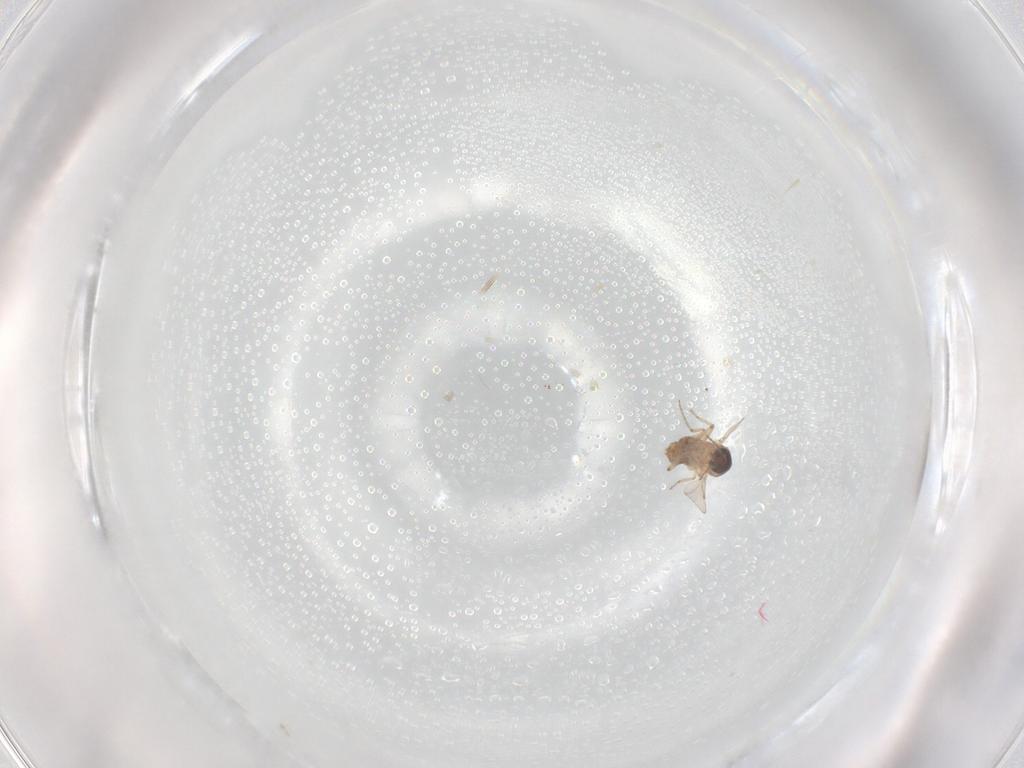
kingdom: Animalia
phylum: Arthropoda
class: Insecta
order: Diptera
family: Ceratopogonidae
